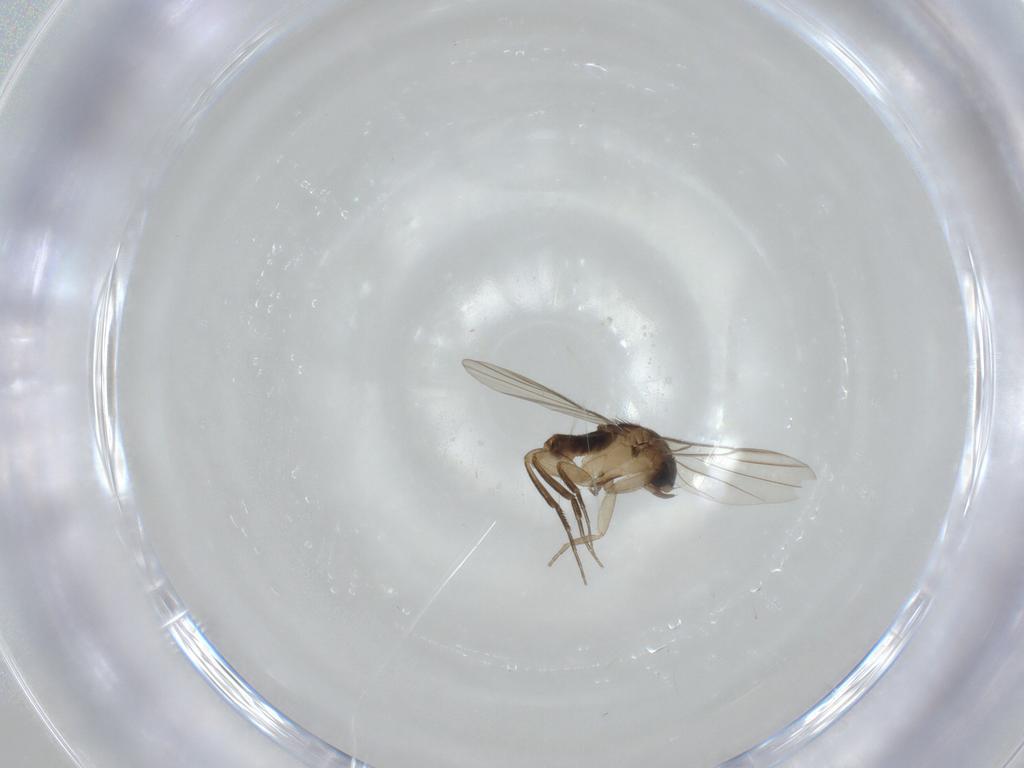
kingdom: Animalia
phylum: Arthropoda
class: Insecta
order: Diptera
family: Phoridae
